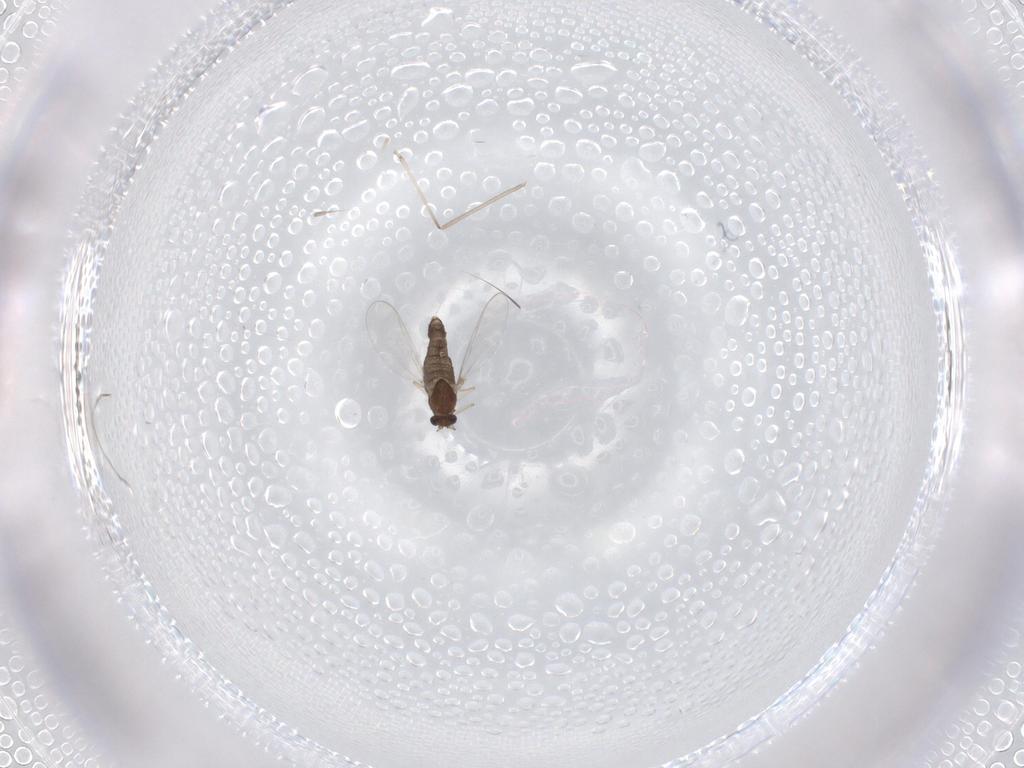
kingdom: Animalia
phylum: Arthropoda
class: Insecta
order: Diptera
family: Chironomidae
